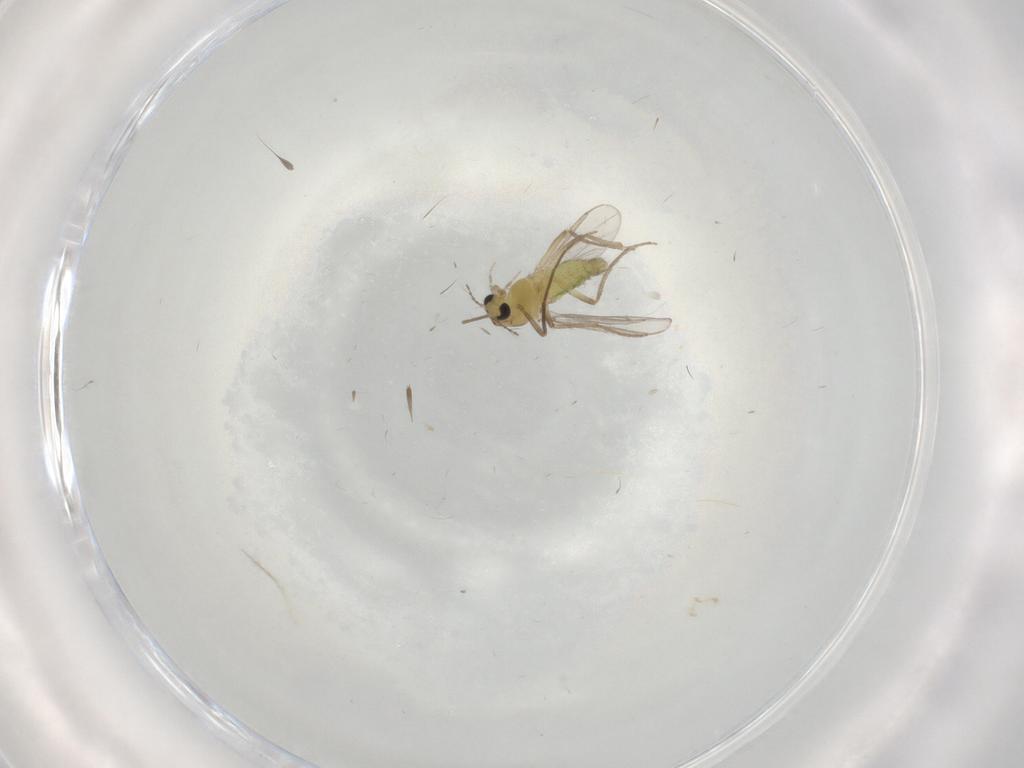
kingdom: Animalia
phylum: Arthropoda
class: Insecta
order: Diptera
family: Chironomidae
